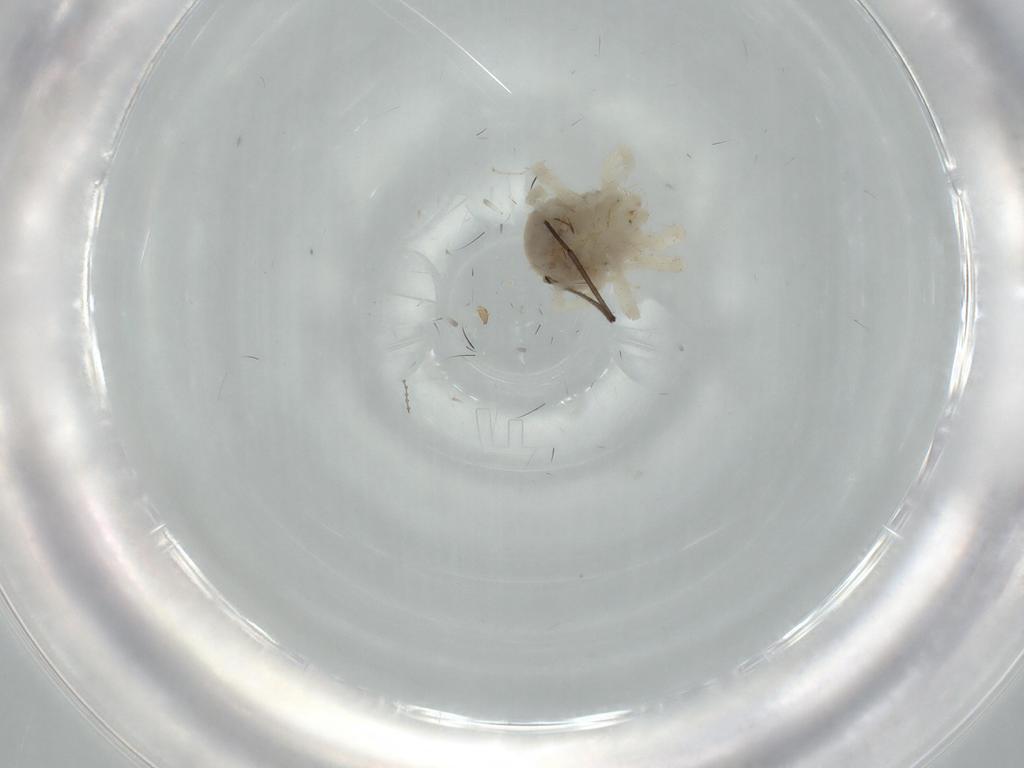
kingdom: Animalia
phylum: Arthropoda
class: Arachnida
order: Trombidiformes
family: Anystidae
